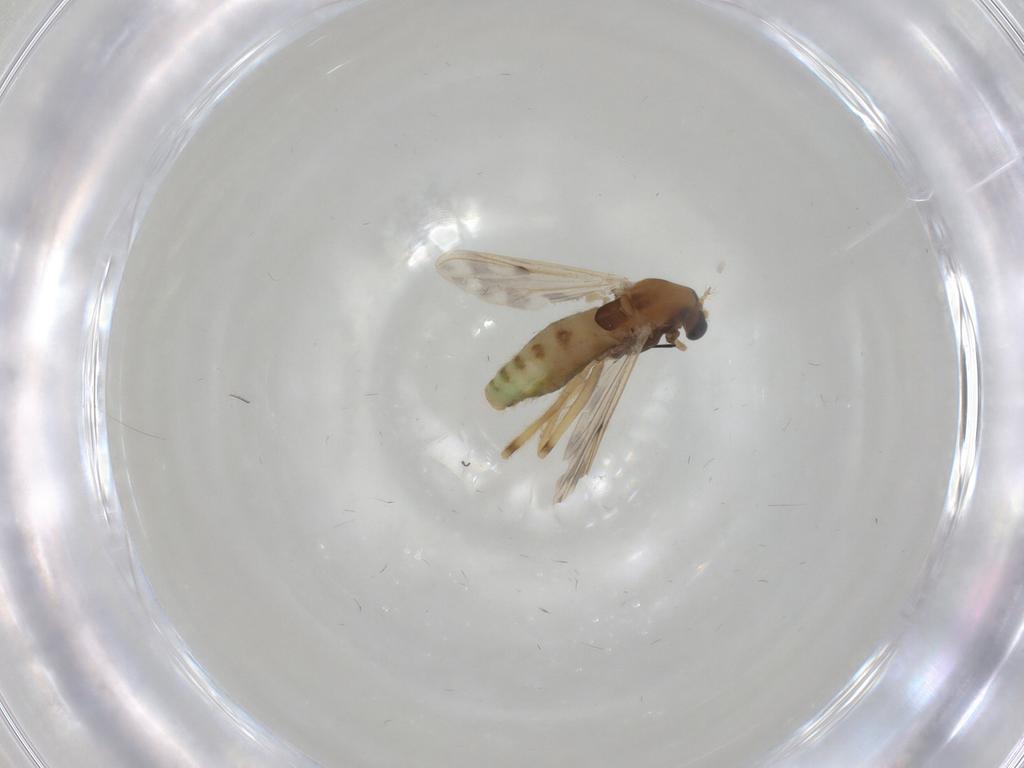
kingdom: Animalia
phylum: Arthropoda
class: Insecta
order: Diptera
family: Chironomidae
